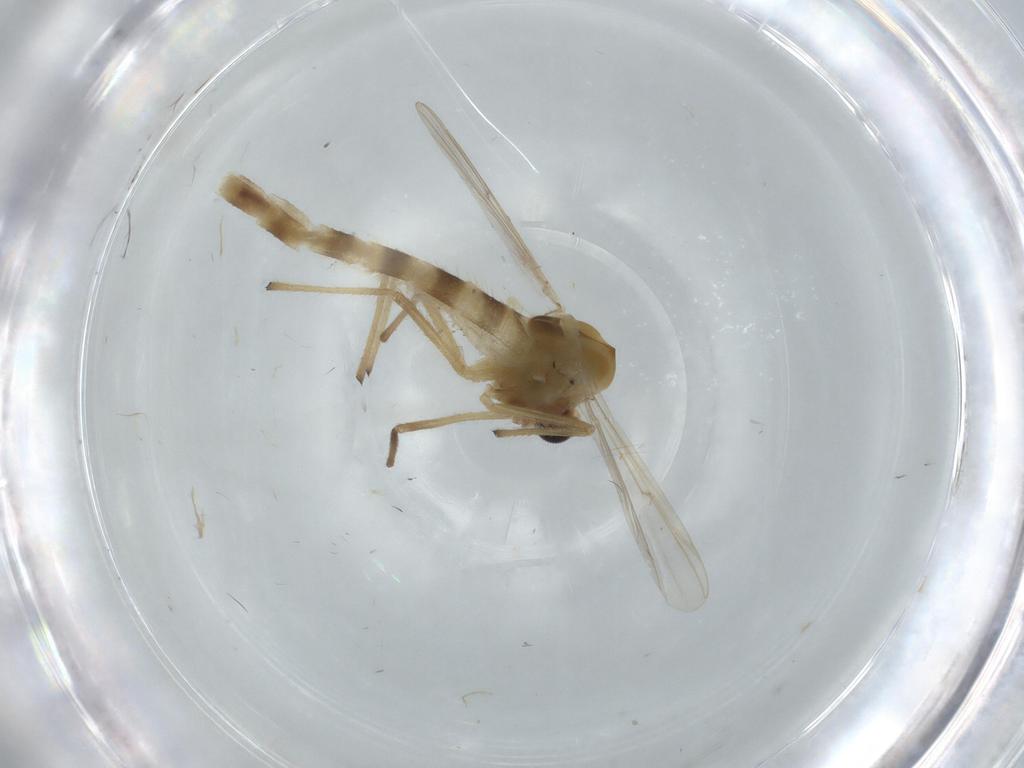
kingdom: Animalia
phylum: Arthropoda
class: Insecta
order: Diptera
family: Chironomidae
